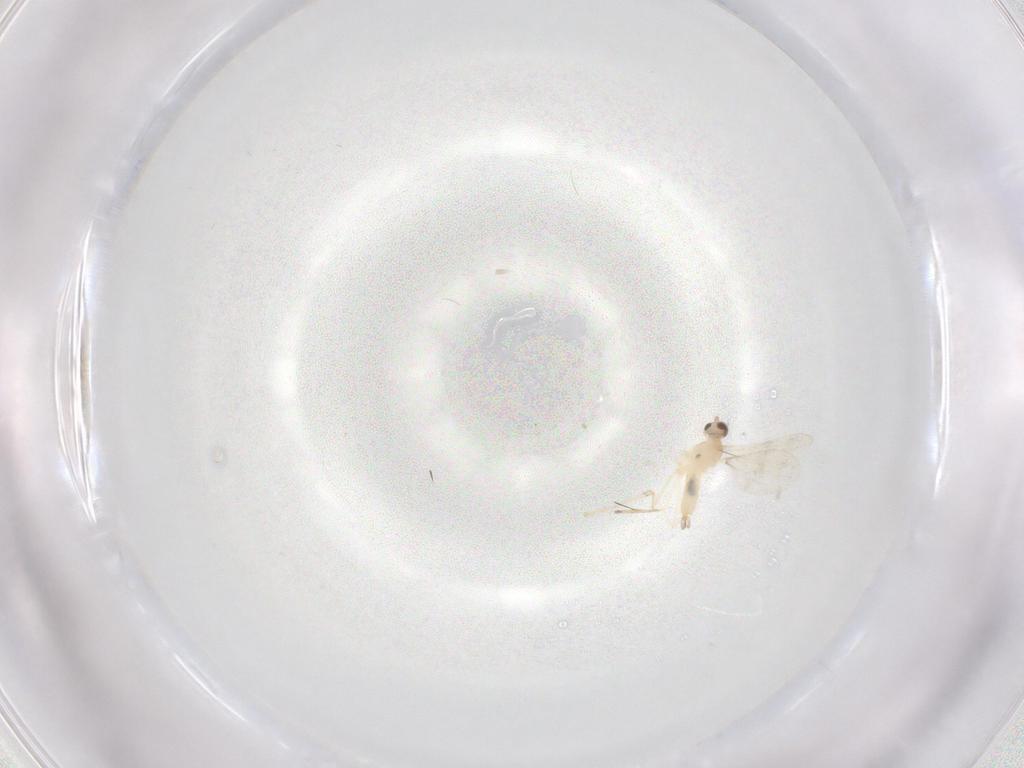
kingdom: Animalia
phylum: Arthropoda
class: Insecta
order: Diptera
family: Cecidomyiidae
